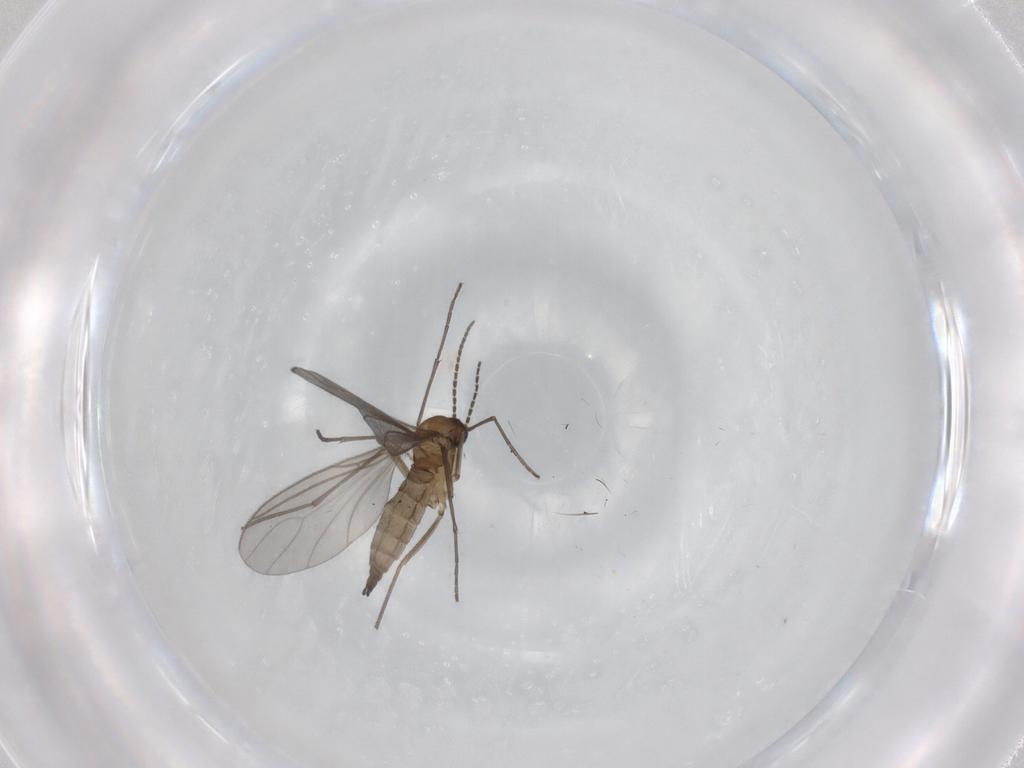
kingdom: Animalia
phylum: Arthropoda
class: Insecta
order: Diptera
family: Sciaridae
